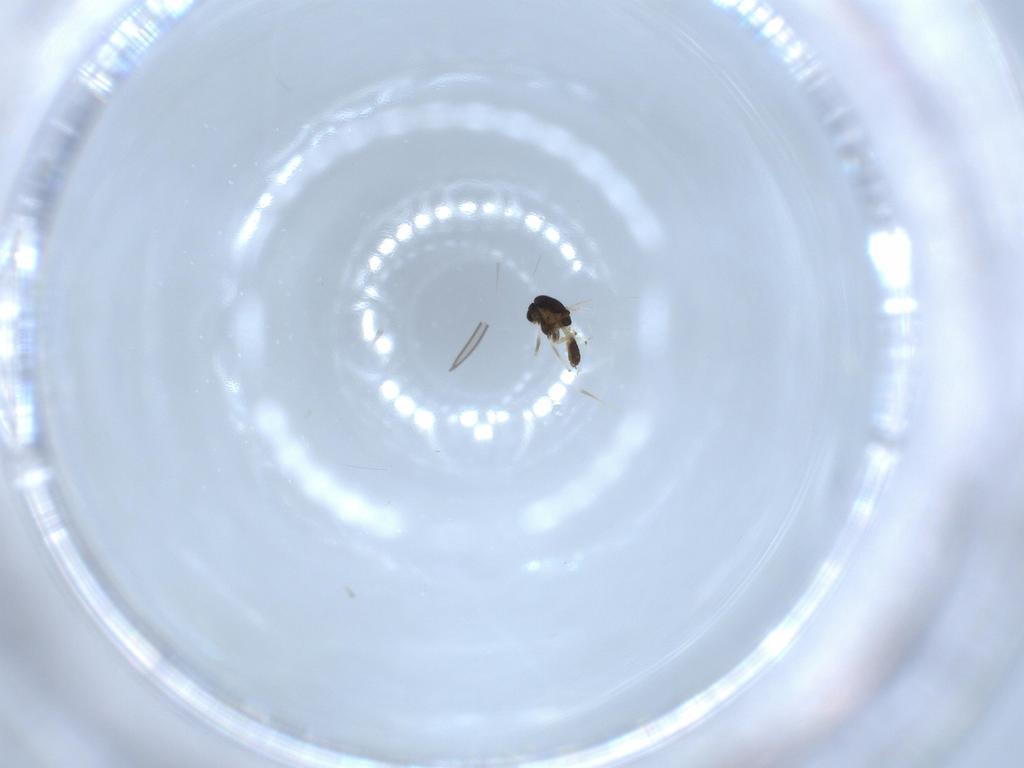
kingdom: Animalia
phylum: Arthropoda
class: Insecta
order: Diptera
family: Chironomidae
